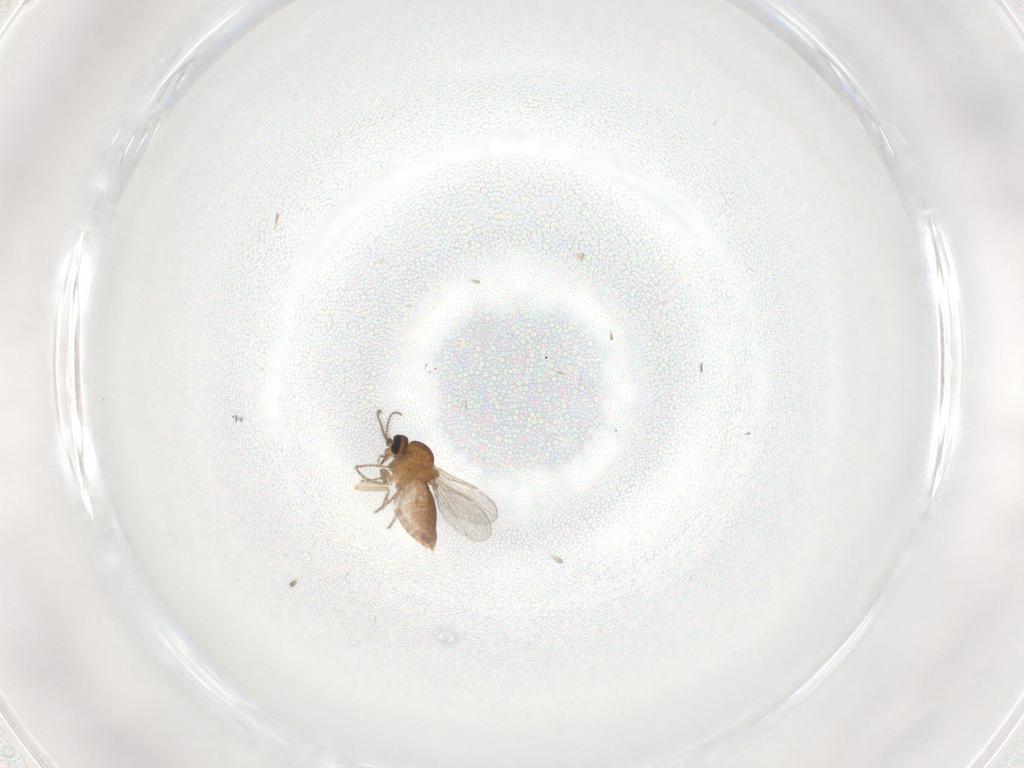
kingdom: Animalia
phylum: Arthropoda
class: Insecta
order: Diptera
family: Ceratopogonidae
